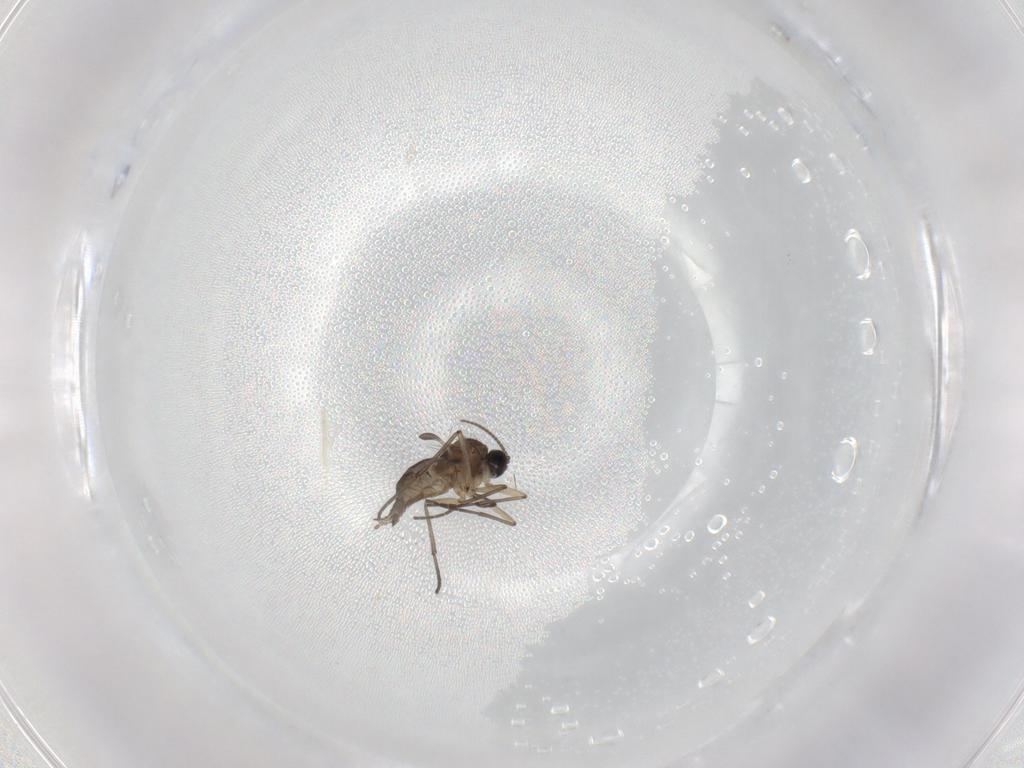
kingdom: Animalia
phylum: Arthropoda
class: Insecta
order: Diptera
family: Sciaridae
